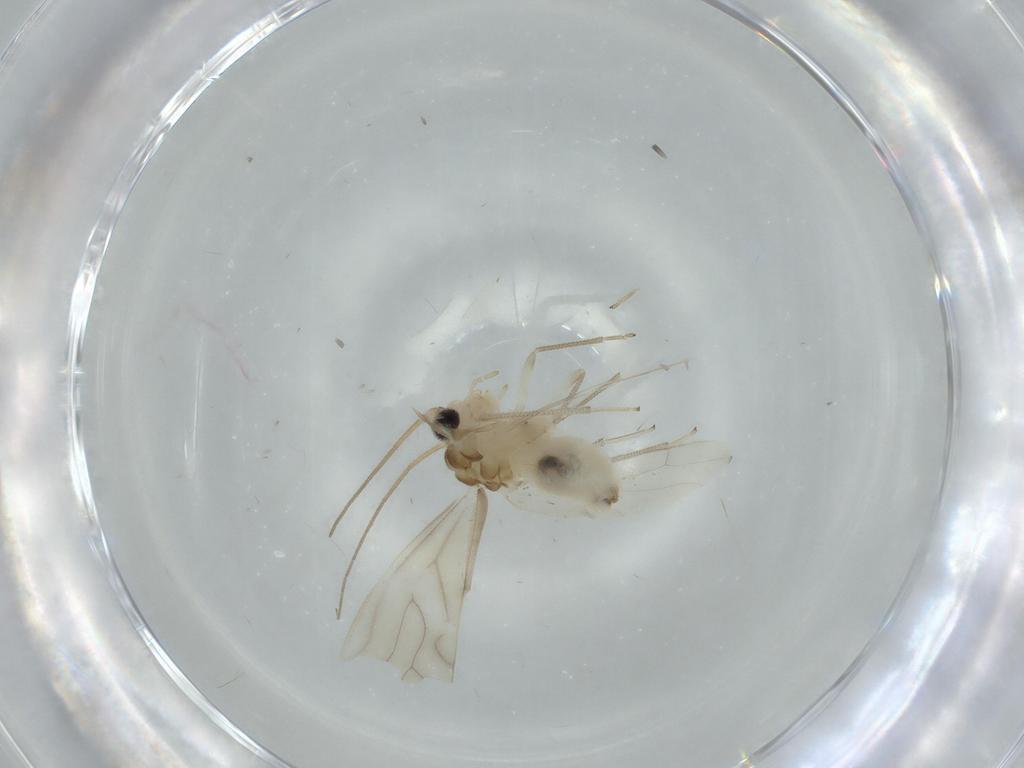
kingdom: Animalia
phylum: Arthropoda
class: Insecta
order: Psocodea
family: Caeciliusidae
